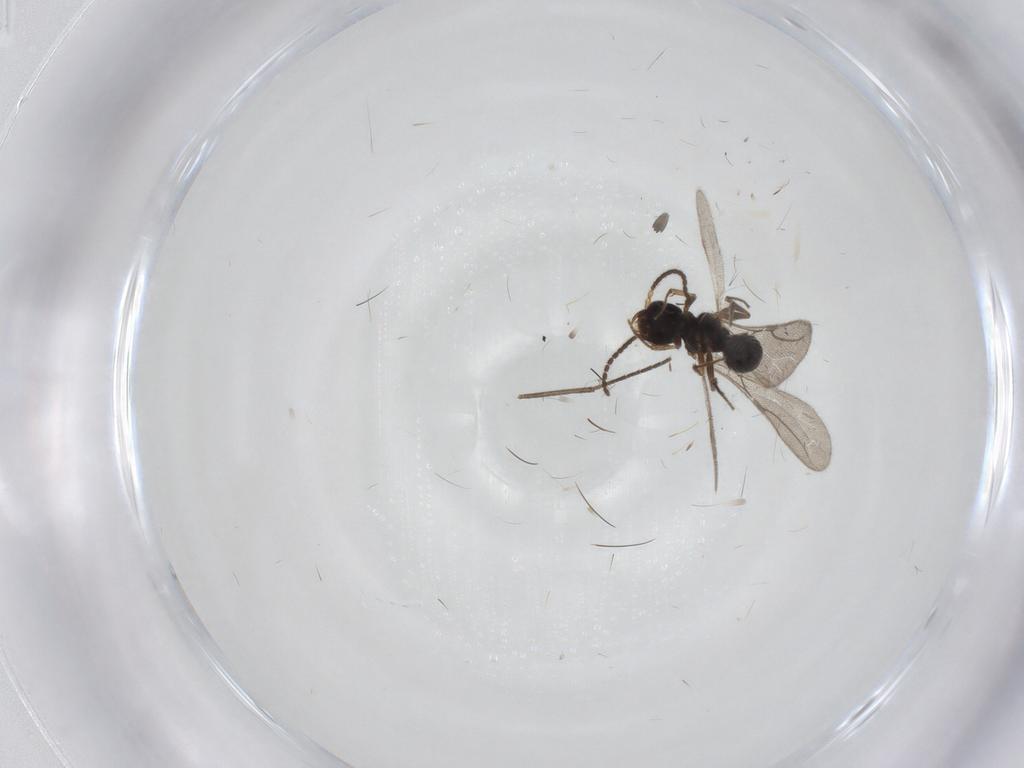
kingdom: Animalia
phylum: Arthropoda
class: Insecta
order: Hymenoptera
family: Bethylidae
